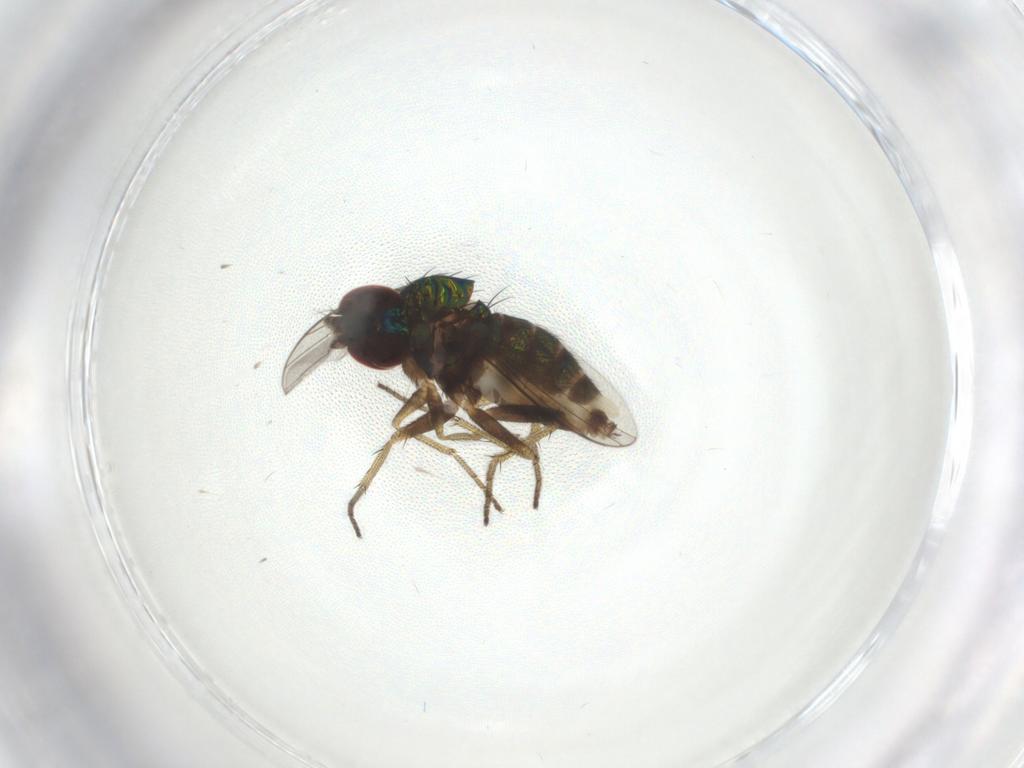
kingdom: Animalia
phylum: Arthropoda
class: Insecta
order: Diptera
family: Dolichopodidae
